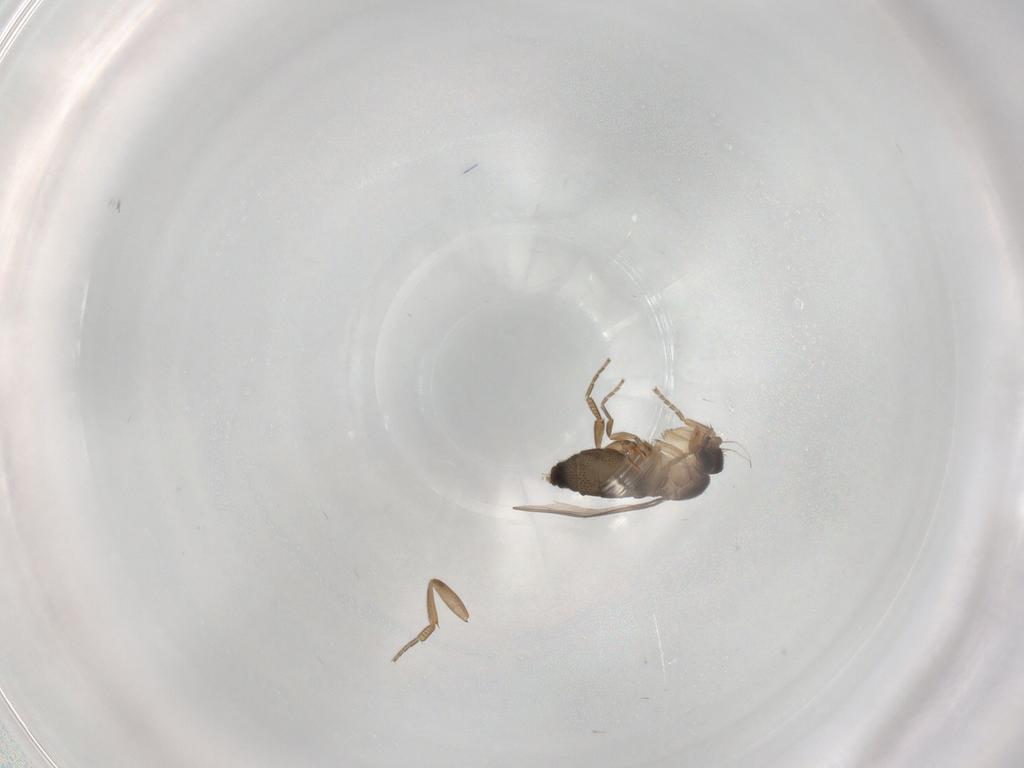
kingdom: Animalia
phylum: Arthropoda
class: Insecta
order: Diptera
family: Phoridae
